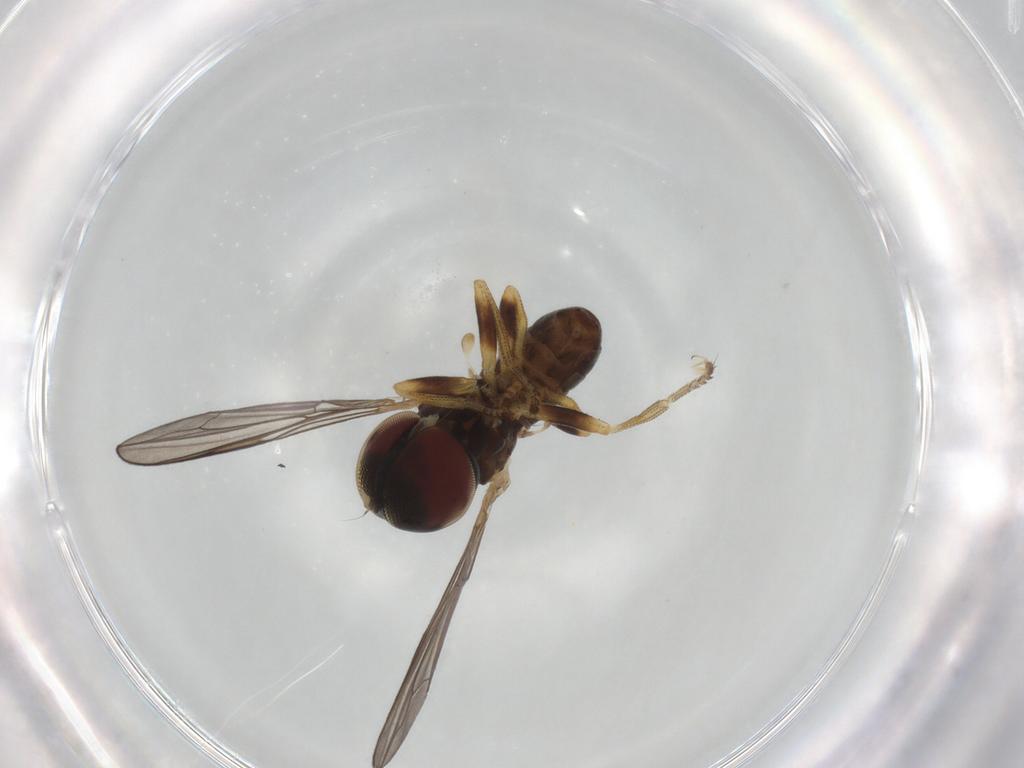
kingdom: Animalia
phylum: Arthropoda
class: Insecta
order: Diptera
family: Pipunculidae
